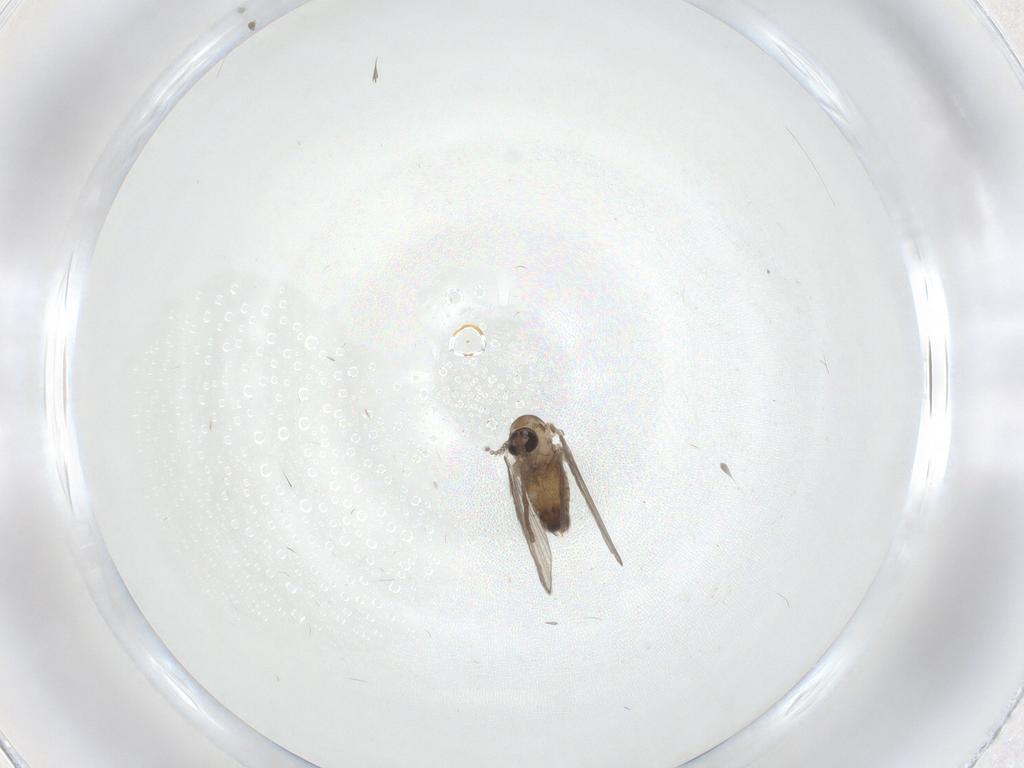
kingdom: Animalia
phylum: Arthropoda
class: Insecta
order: Diptera
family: Psychodidae
